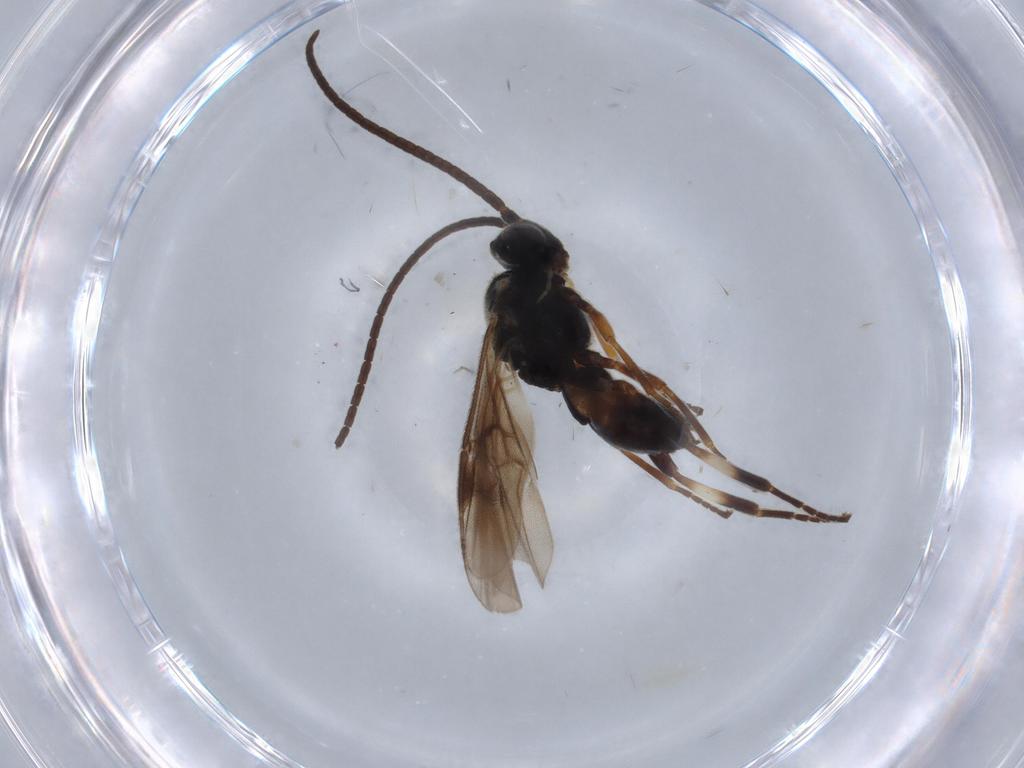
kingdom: Animalia
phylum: Arthropoda
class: Insecta
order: Hymenoptera
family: Braconidae
